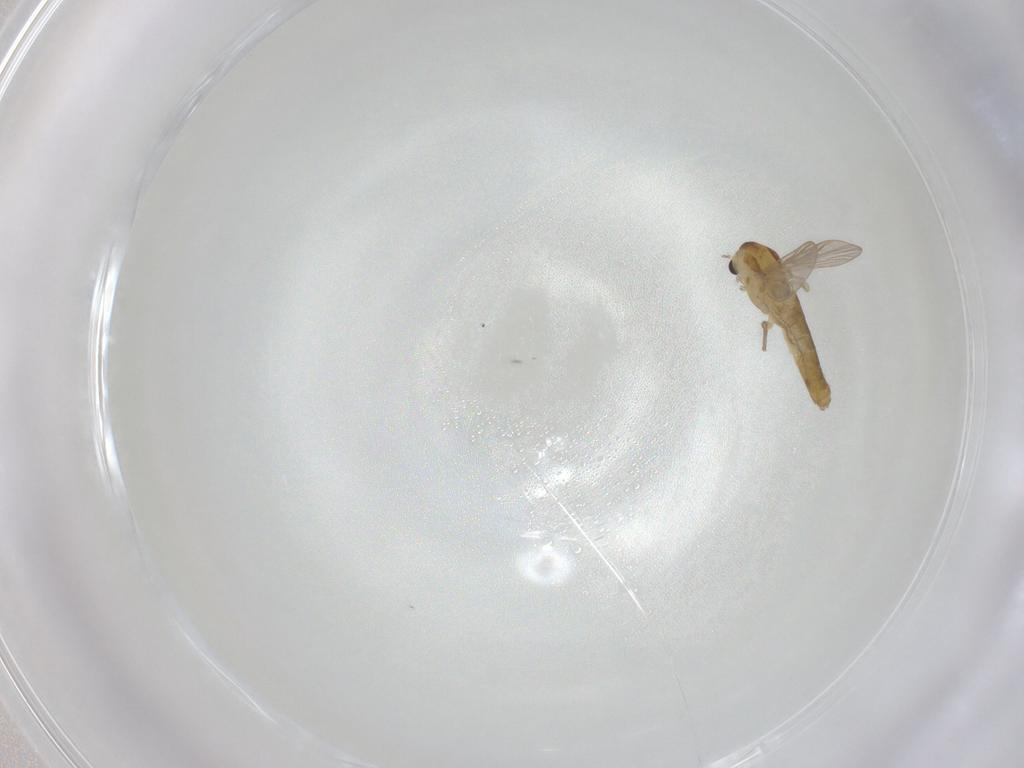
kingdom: Animalia
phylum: Arthropoda
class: Insecta
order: Diptera
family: Chironomidae
